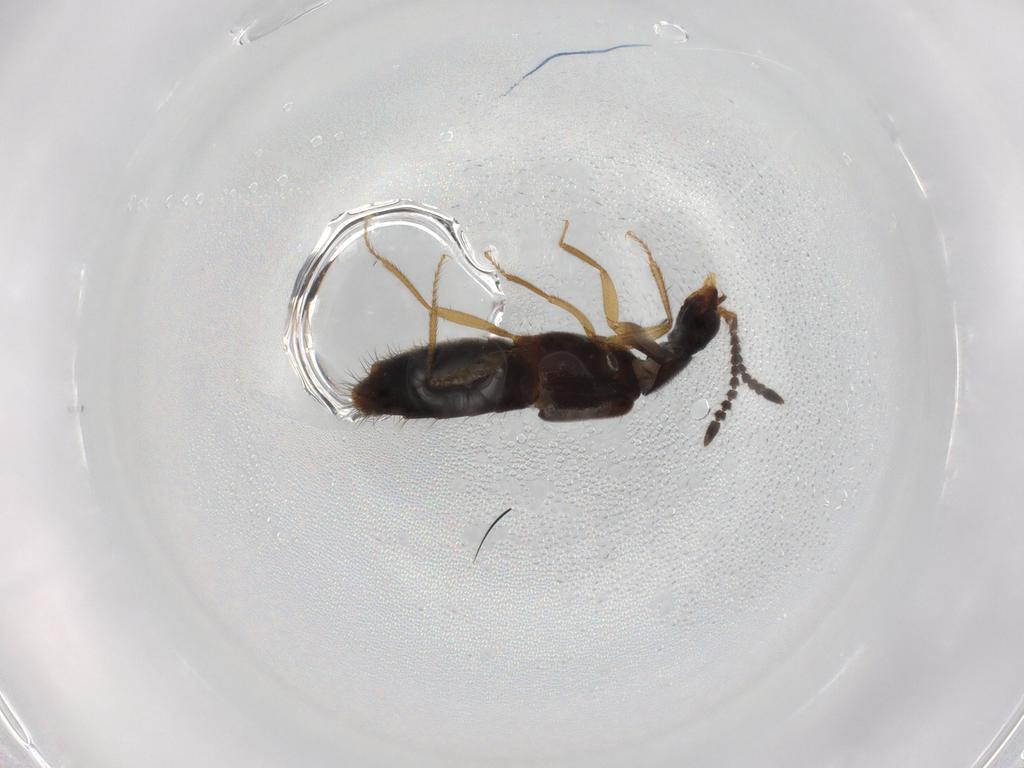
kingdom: Animalia
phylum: Arthropoda
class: Insecta
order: Coleoptera
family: Staphylinidae
